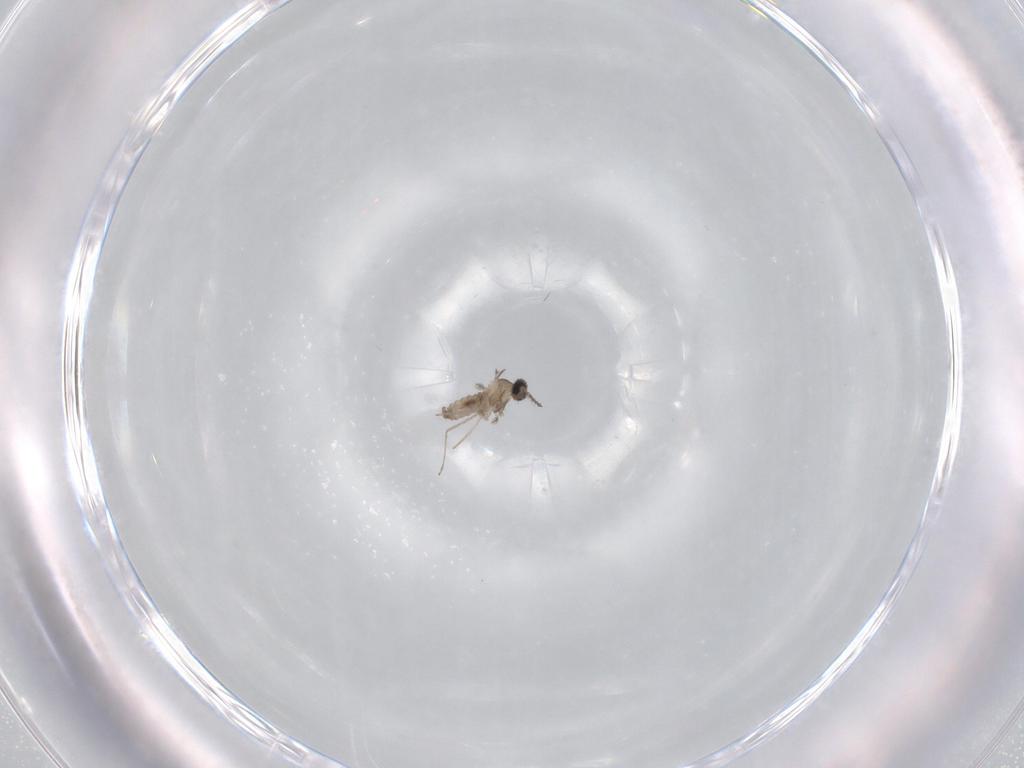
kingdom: Animalia
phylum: Arthropoda
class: Insecta
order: Diptera
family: Cecidomyiidae
